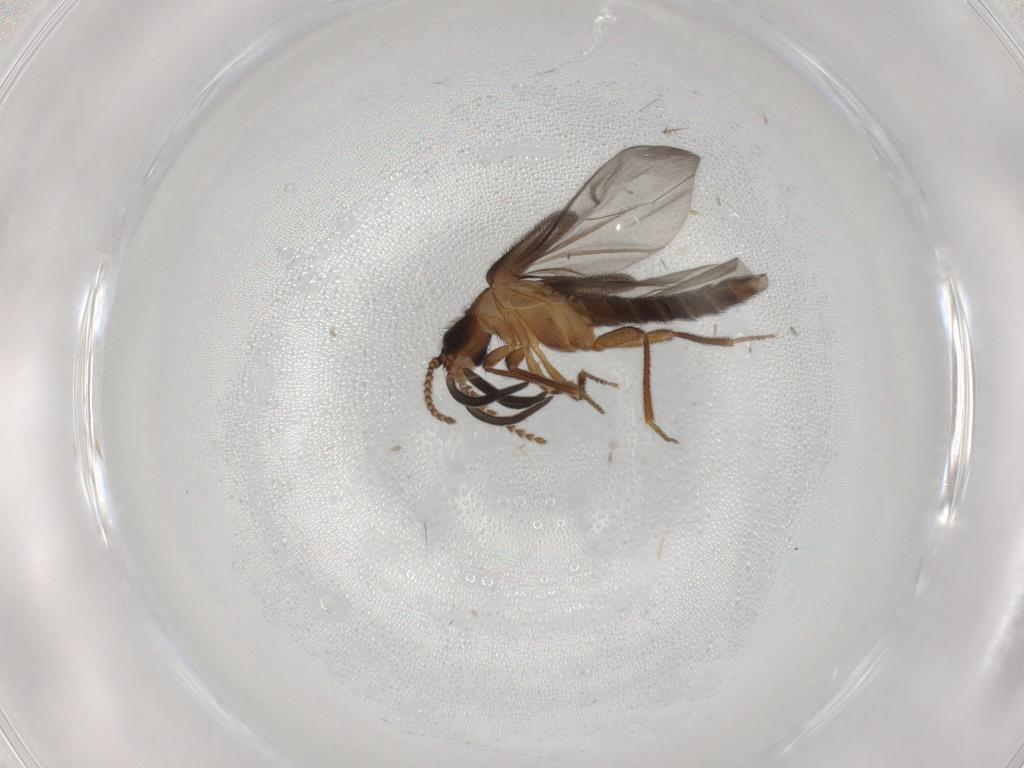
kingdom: Animalia
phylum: Arthropoda
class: Insecta
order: Coleoptera
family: Omethidae
